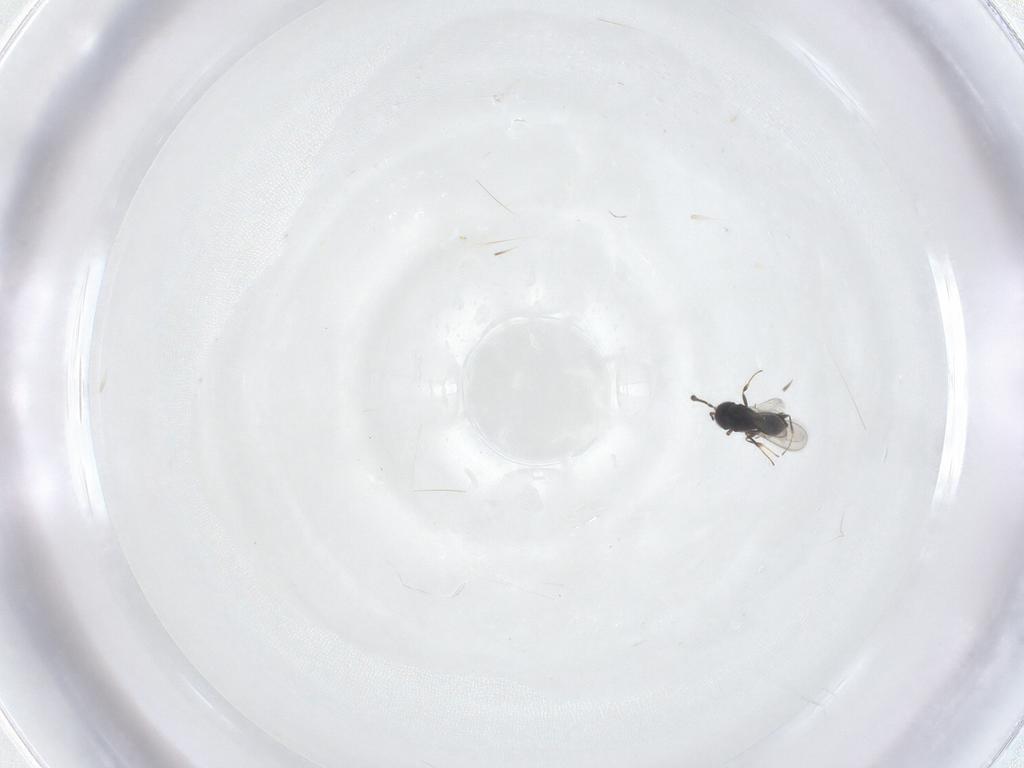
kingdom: Animalia
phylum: Arthropoda
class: Insecta
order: Hymenoptera
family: Scelionidae
